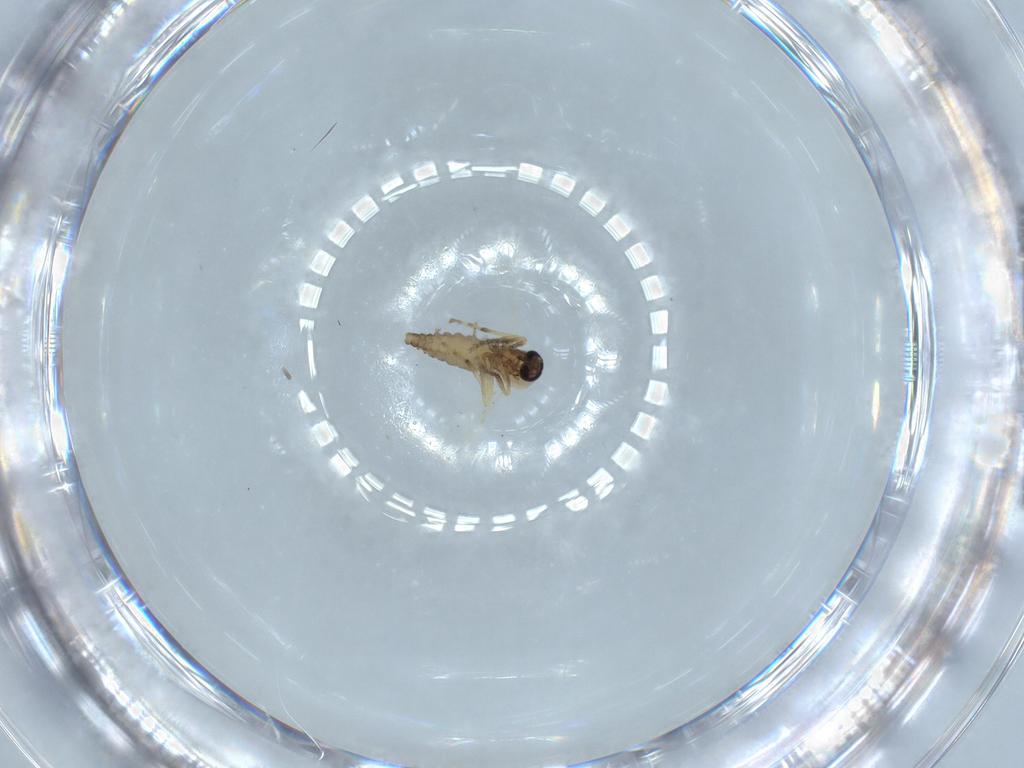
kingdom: Animalia
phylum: Arthropoda
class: Insecta
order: Diptera
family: Ceratopogonidae
